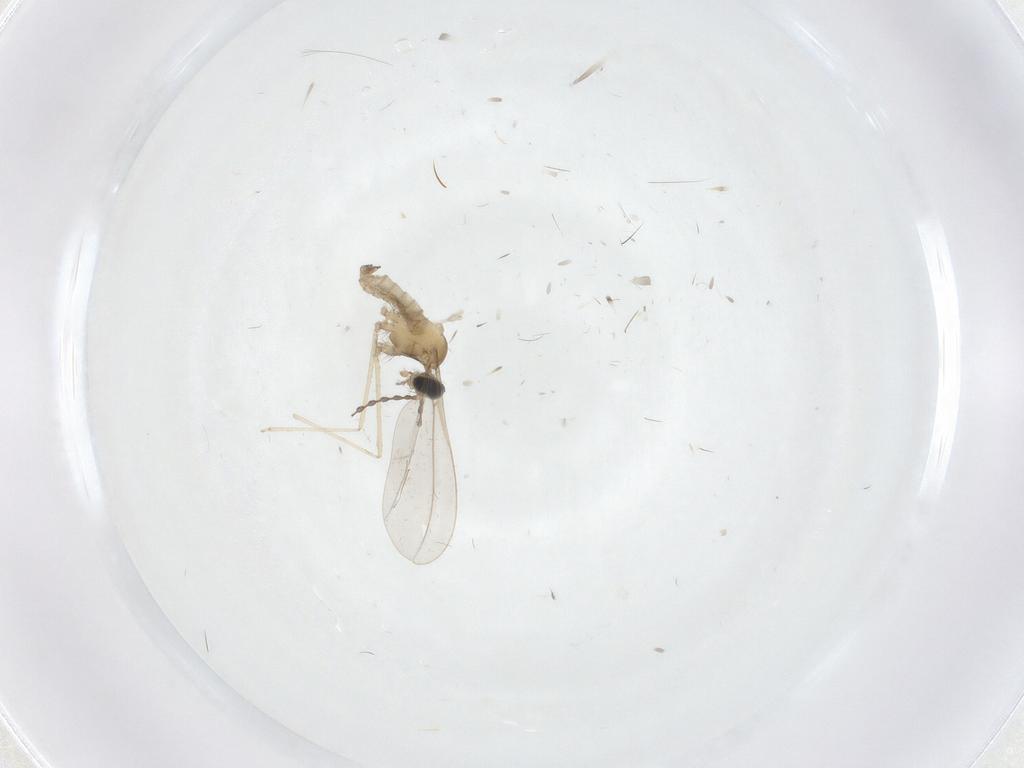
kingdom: Animalia
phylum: Arthropoda
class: Insecta
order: Diptera
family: Cecidomyiidae
